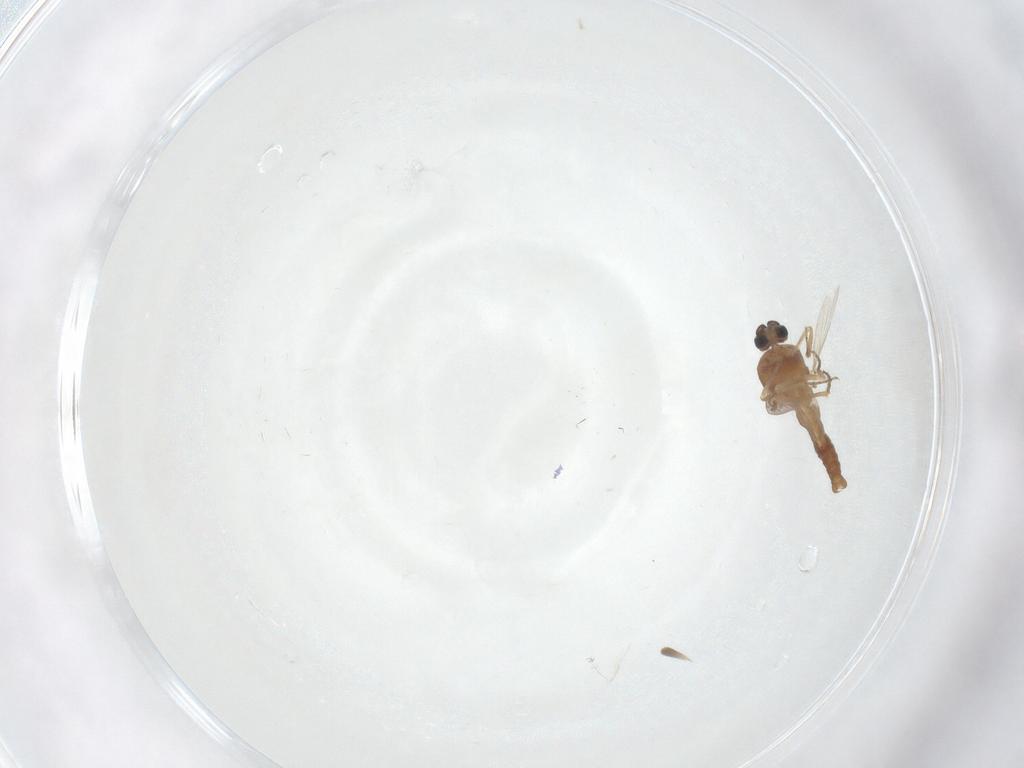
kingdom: Animalia
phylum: Arthropoda
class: Insecta
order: Diptera
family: Ceratopogonidae
